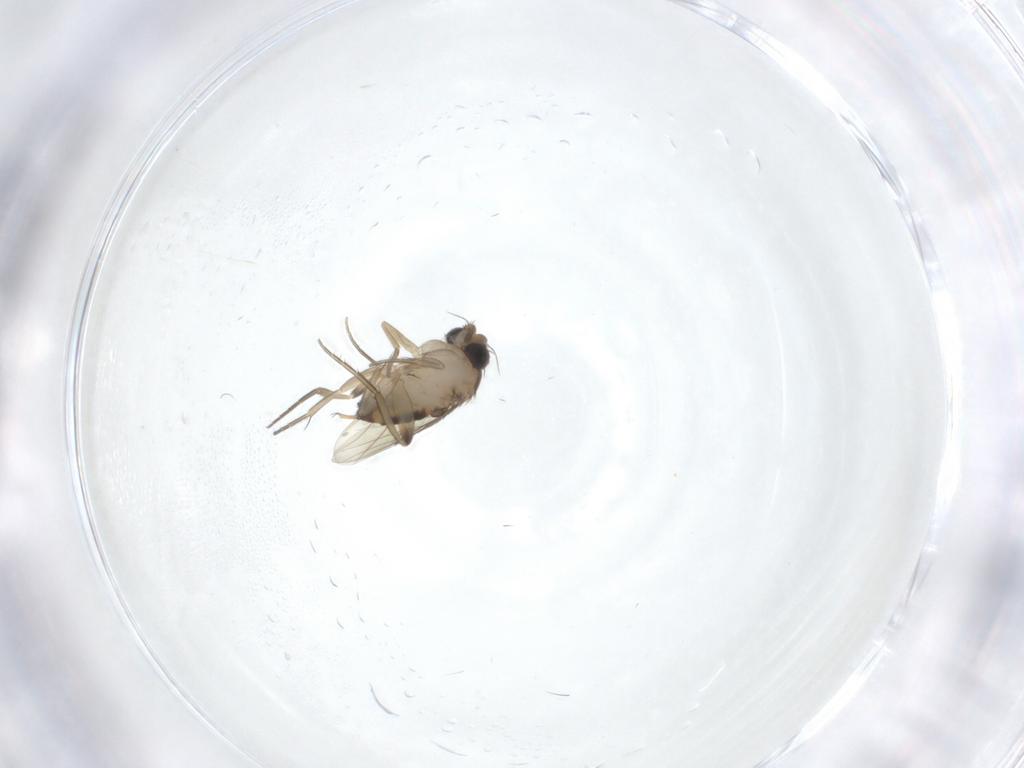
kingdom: Animalia
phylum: Arthropoda
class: Insecta
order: Diptera
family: Phoridae
